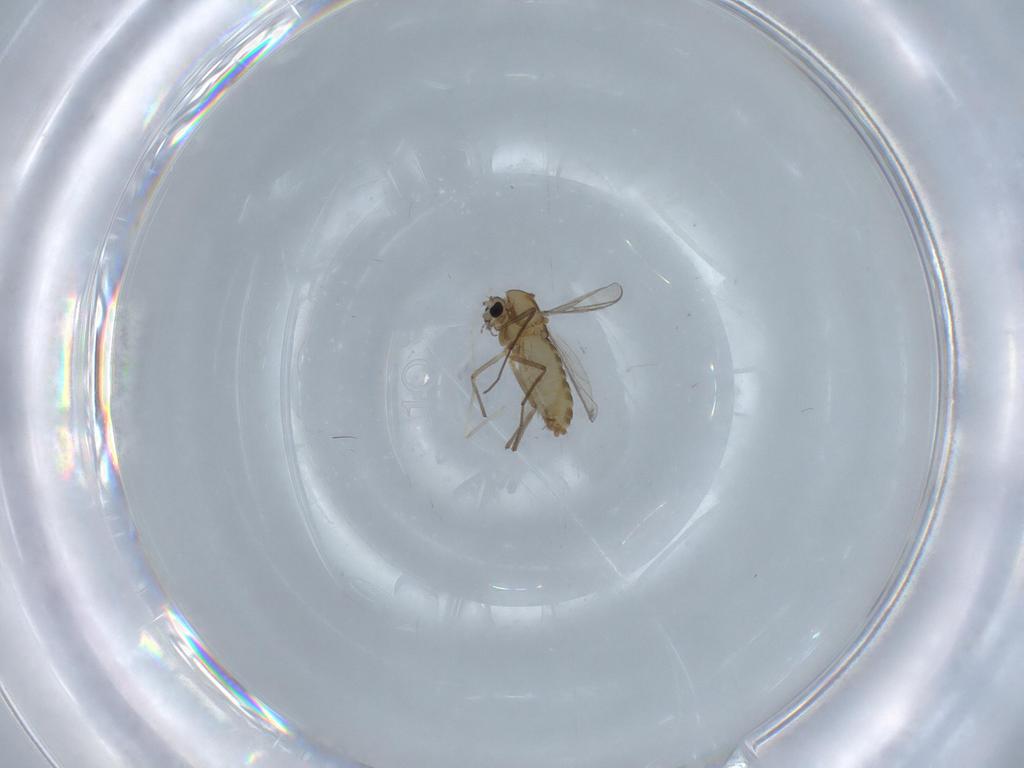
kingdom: Animalia
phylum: Arthropoda
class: Insecta
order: Diptera
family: Chironomidae
